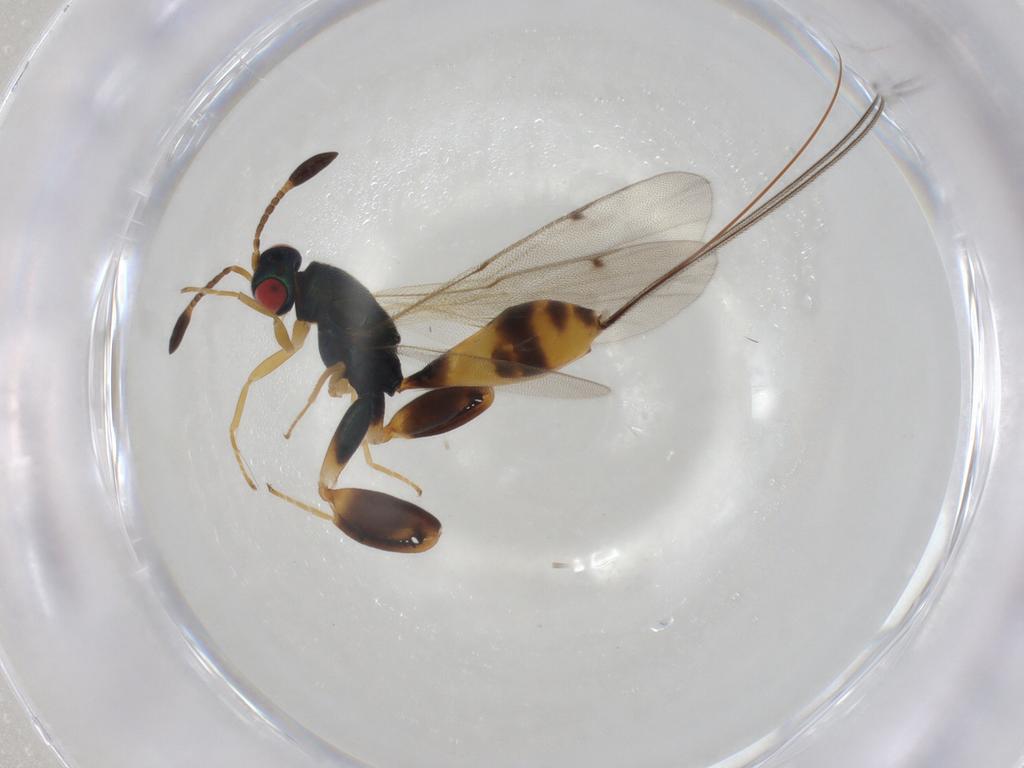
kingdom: Animalia
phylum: Arthropoda
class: Insecta
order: Hymenoptera
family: Torymidae
